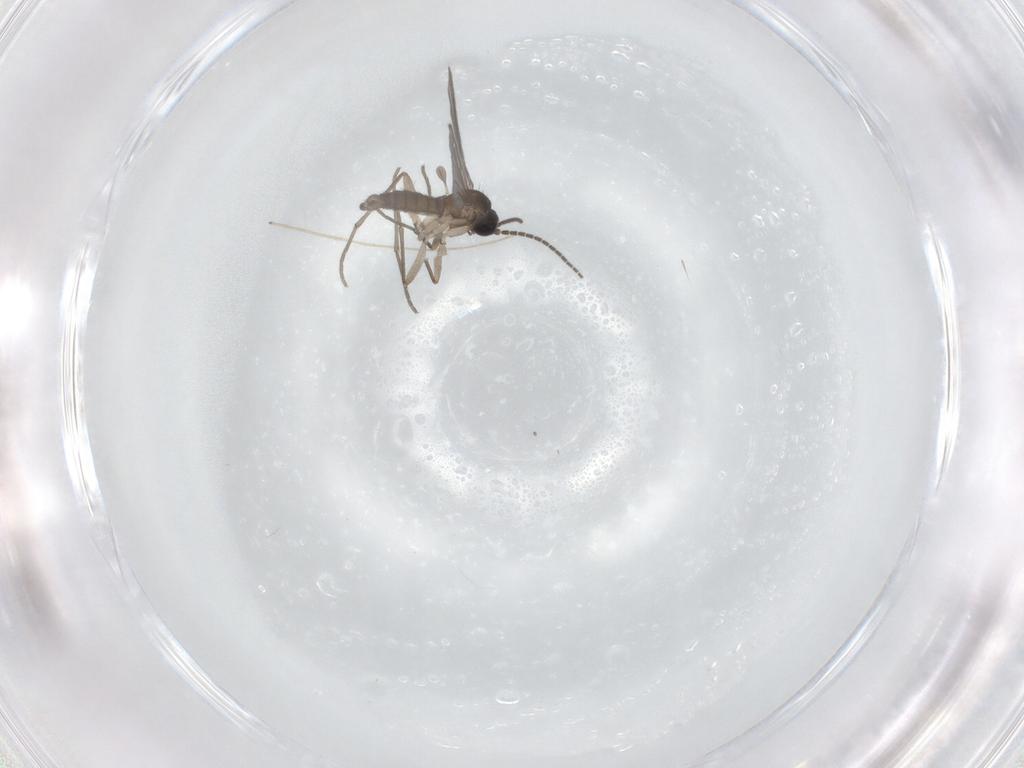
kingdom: Animalia
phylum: Arthropoda
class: Insecta
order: Diptera
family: Sciaridae
